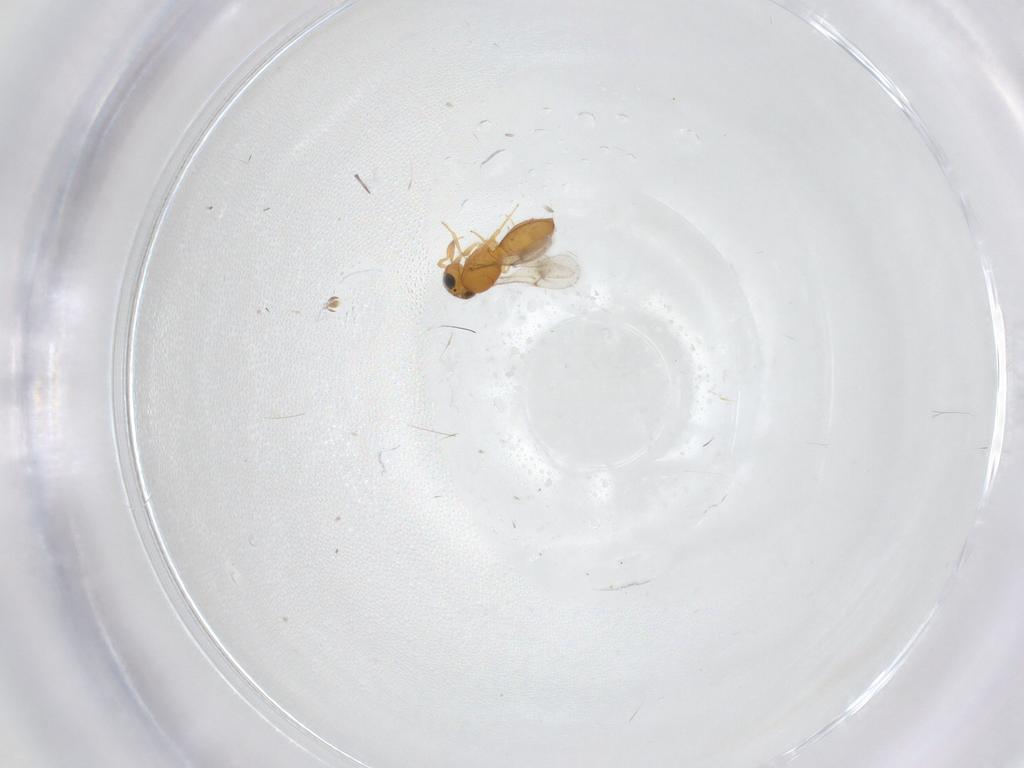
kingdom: Animalia
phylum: Arthropoda
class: Insecta
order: Hymenoptera
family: Scelionidae
